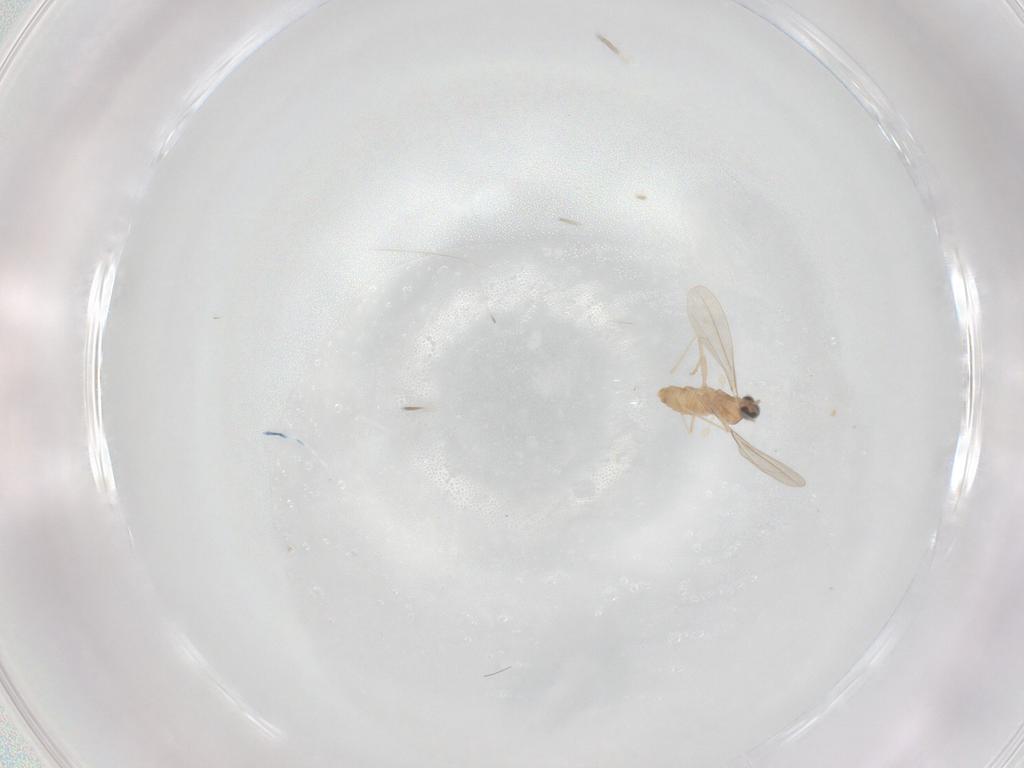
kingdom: Animalia
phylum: Arthropoda
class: Insecta
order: Diptera
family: Cecidomyiidae
